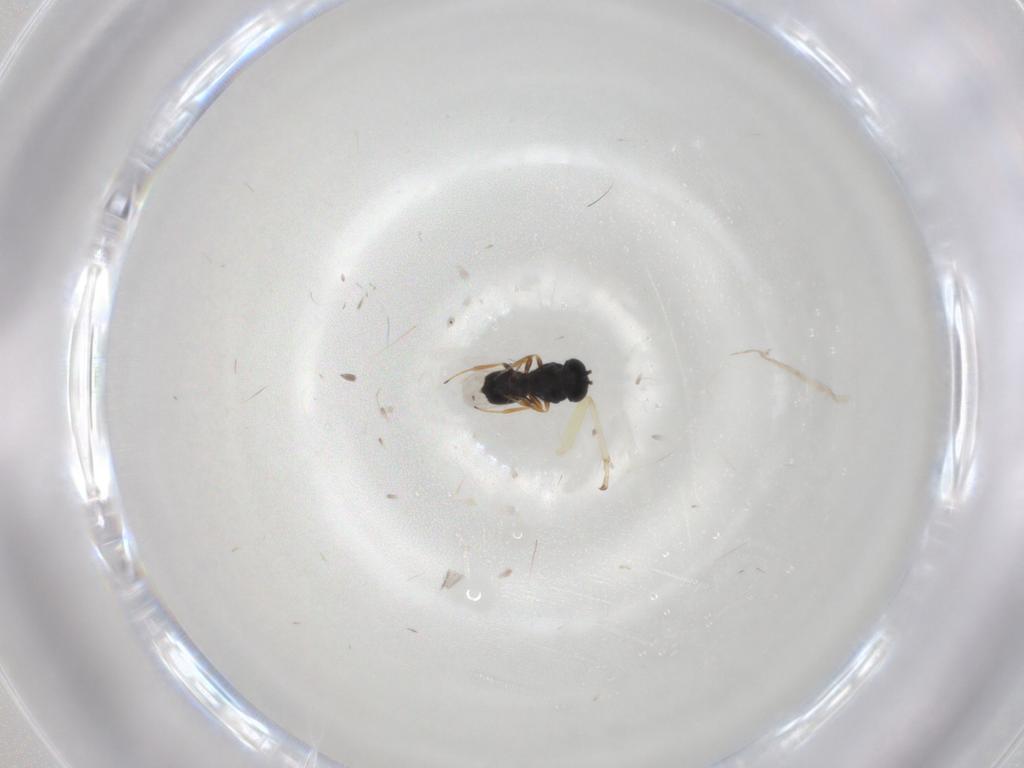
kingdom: Animalia
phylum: Arthropoda
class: Insecta
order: Hymenoptera
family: Scelionidae
